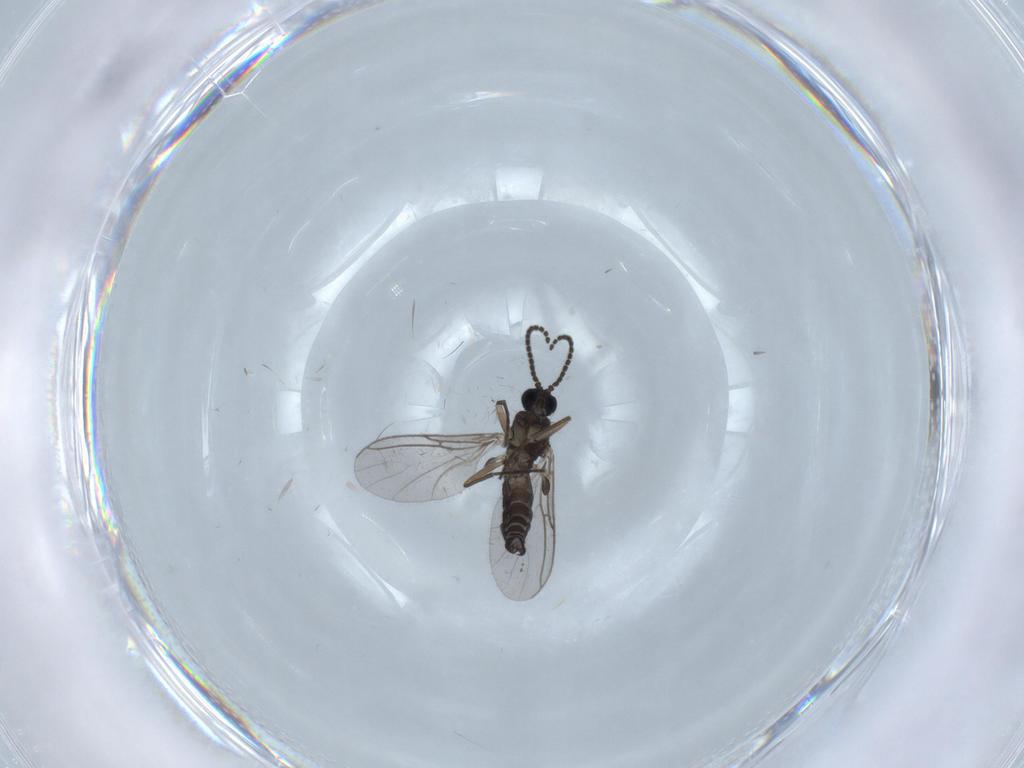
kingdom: Animalia
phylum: Arthropoda
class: Insecta
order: Diptera
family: Sciaridae
